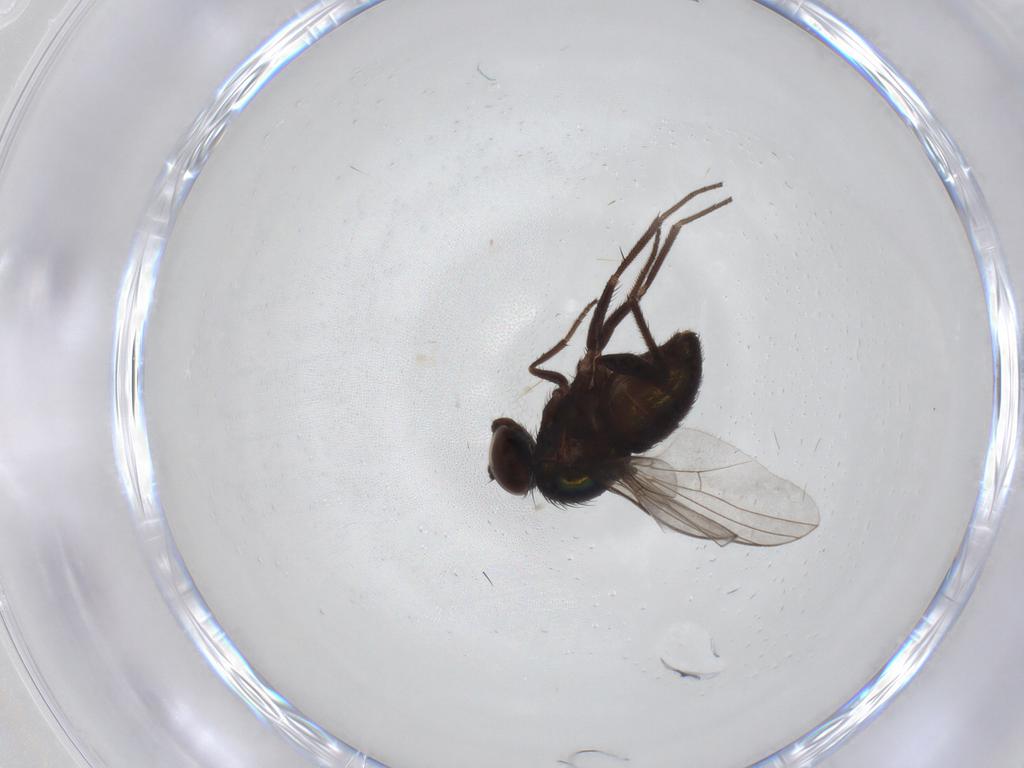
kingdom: Animalia
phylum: Arthropoda
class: Insecta
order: Diptera
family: Dolichopodidae
